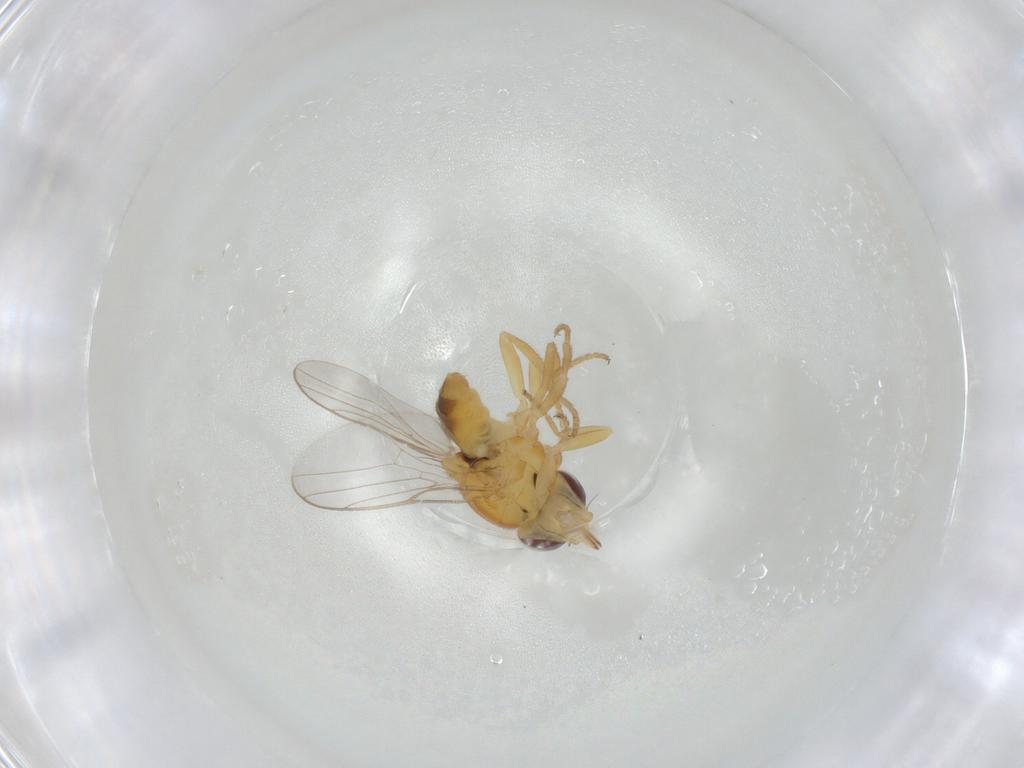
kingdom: Animalia
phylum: Arthropoda
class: Insecta
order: Diptera
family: Chloropidae
